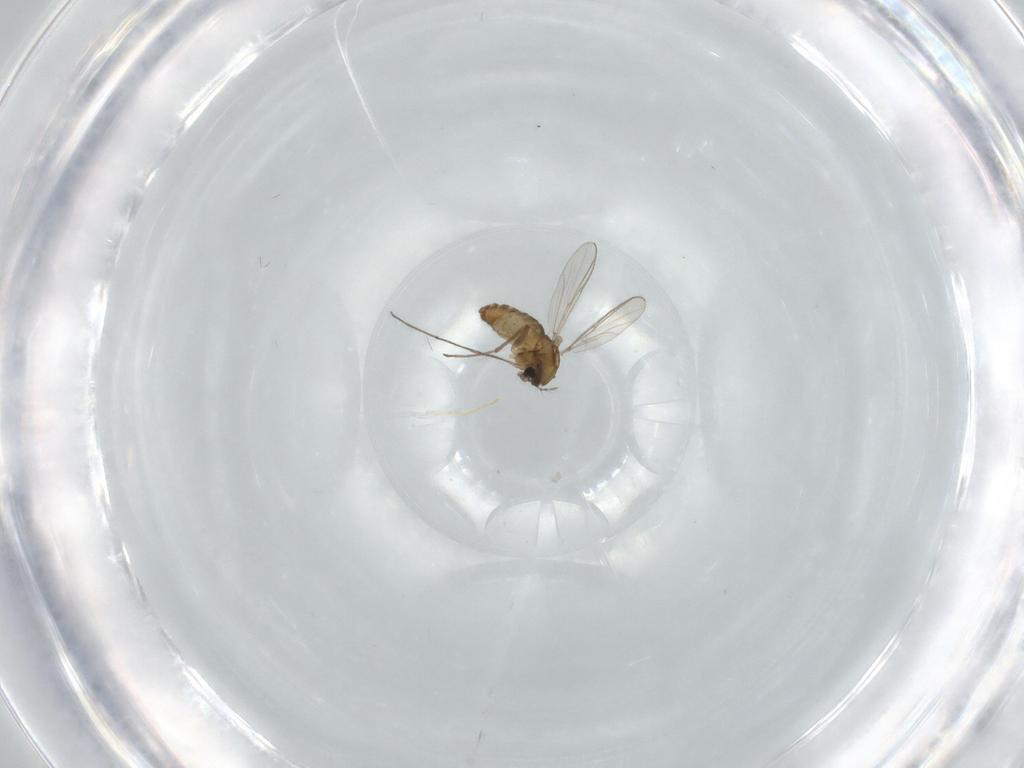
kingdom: Animalia
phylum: Arthropoda
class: Insecta
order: Diptera
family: Chironomidae
